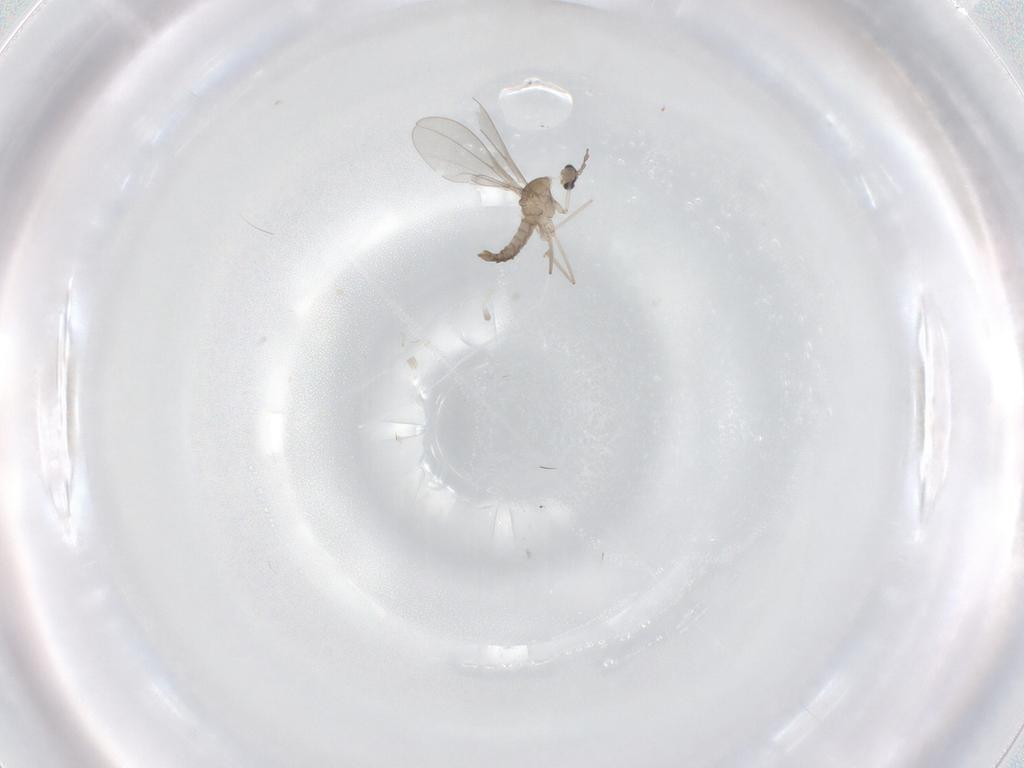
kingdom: Animalia
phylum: Arthropoda
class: Insecta
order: Diptera
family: Cecidomyiidae
